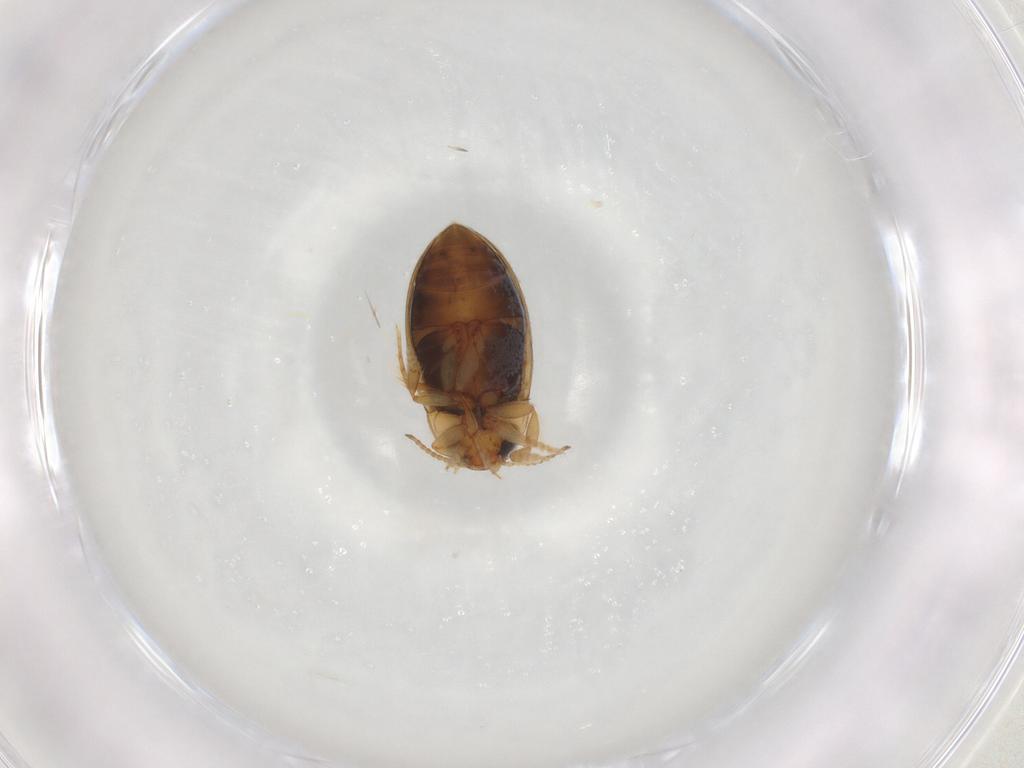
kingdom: Animalia
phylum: Arthropoda
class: Insecta
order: Coleoptera
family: Dytiscidae
